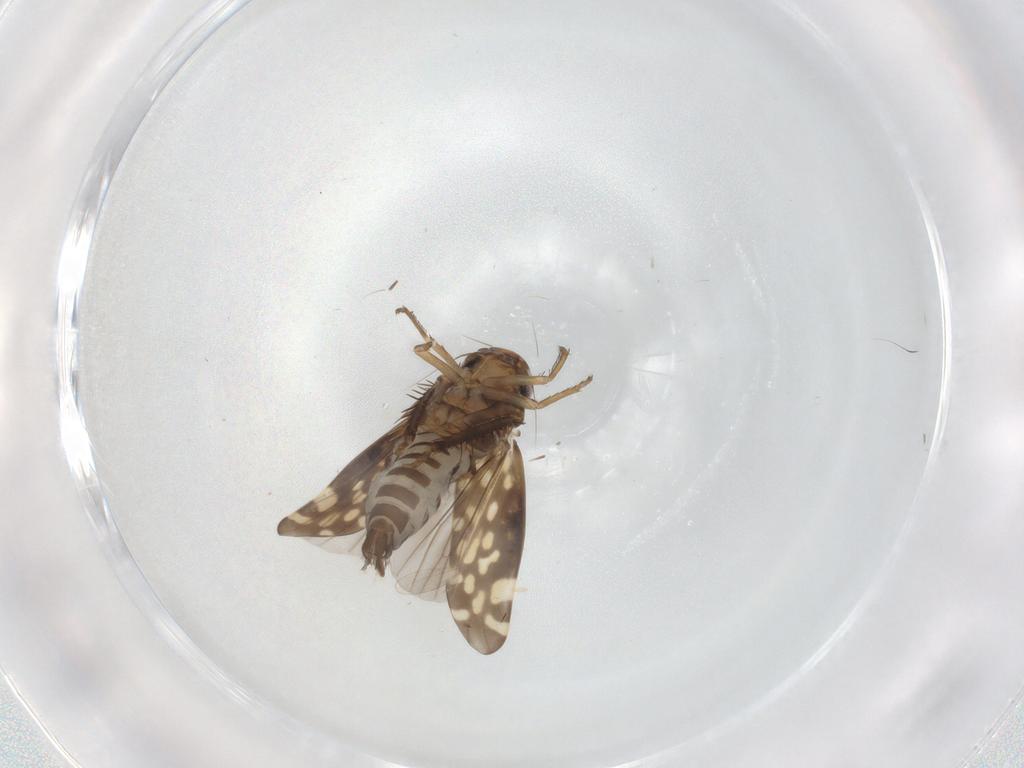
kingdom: Animalia
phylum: Arthropoda
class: Insecta
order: Hemiptera
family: Cicadellidae
